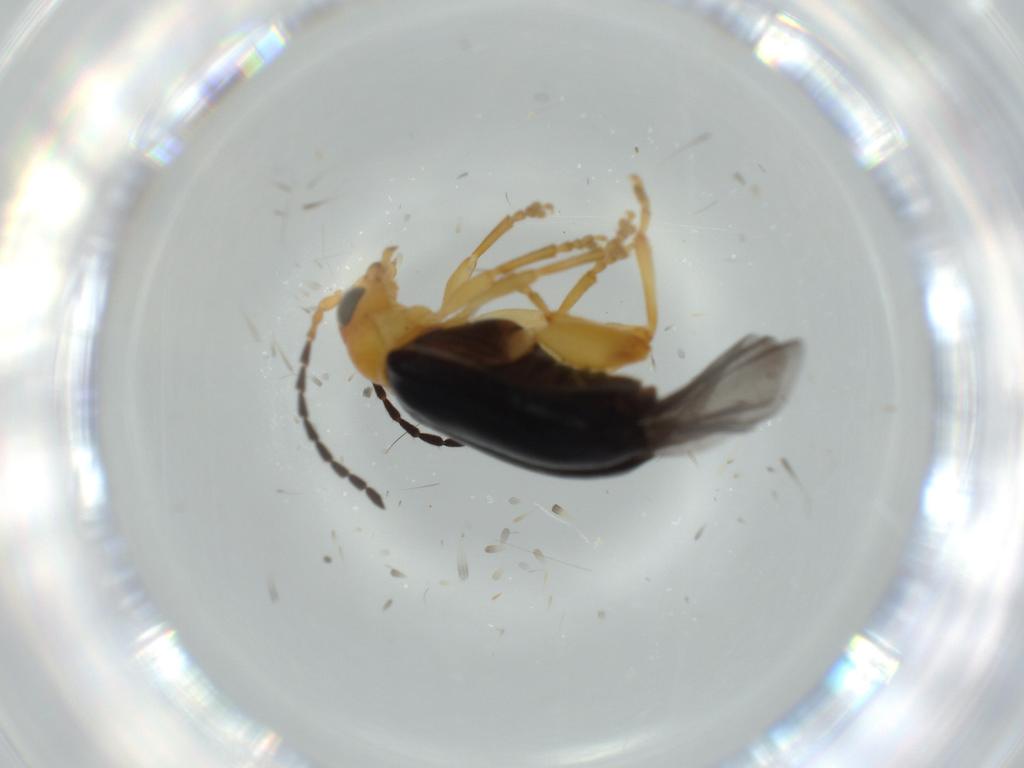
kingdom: Animalia
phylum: Arthropoda
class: Insecta
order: Coleoptera
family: Chrysomelidae
